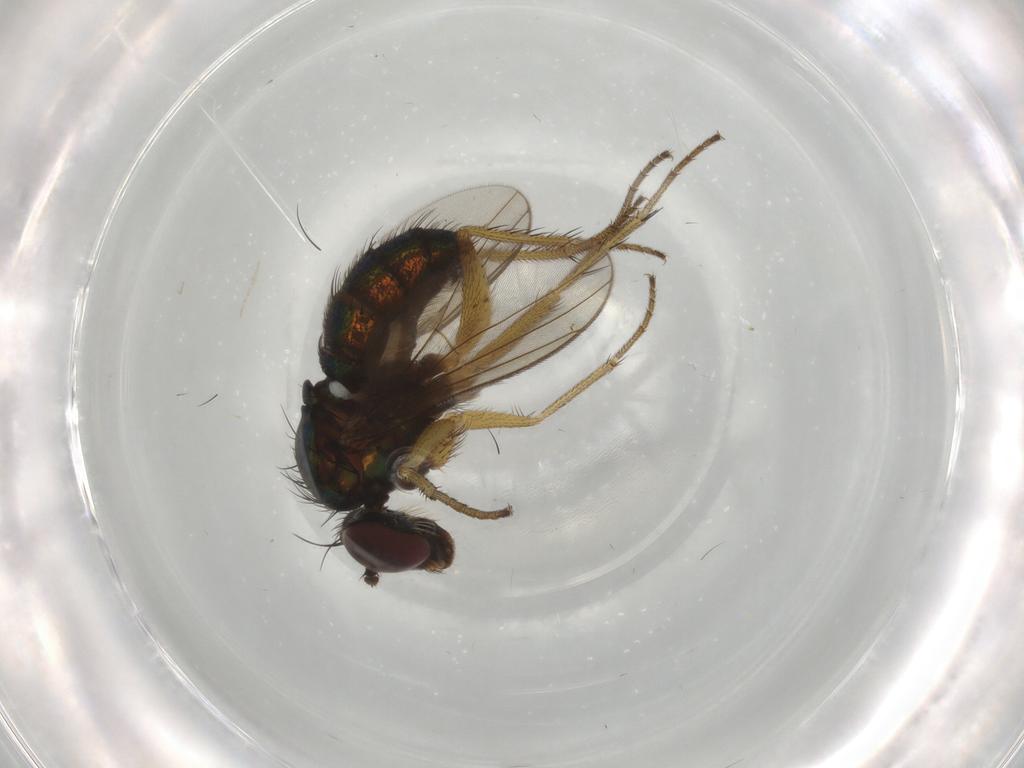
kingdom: Animalia
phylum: Arthropoda
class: Insecta
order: Diptera
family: Dolichopodidae
